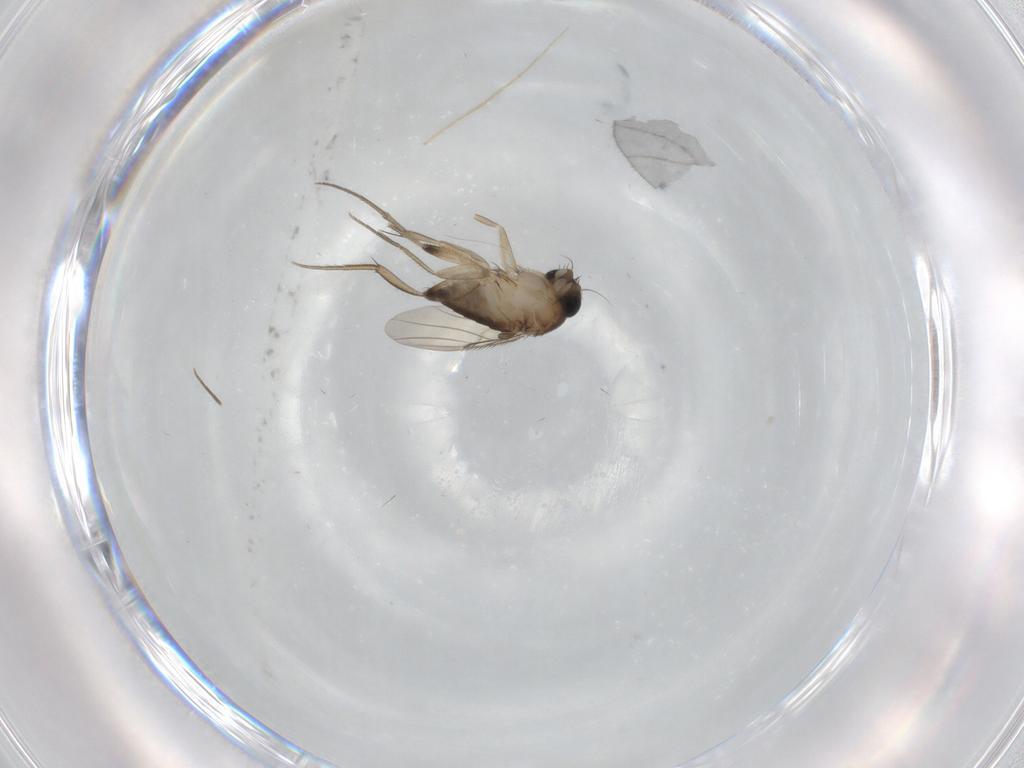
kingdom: Animalia
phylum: Arthropoda
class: Insecta
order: Diptera
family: Phoridae
